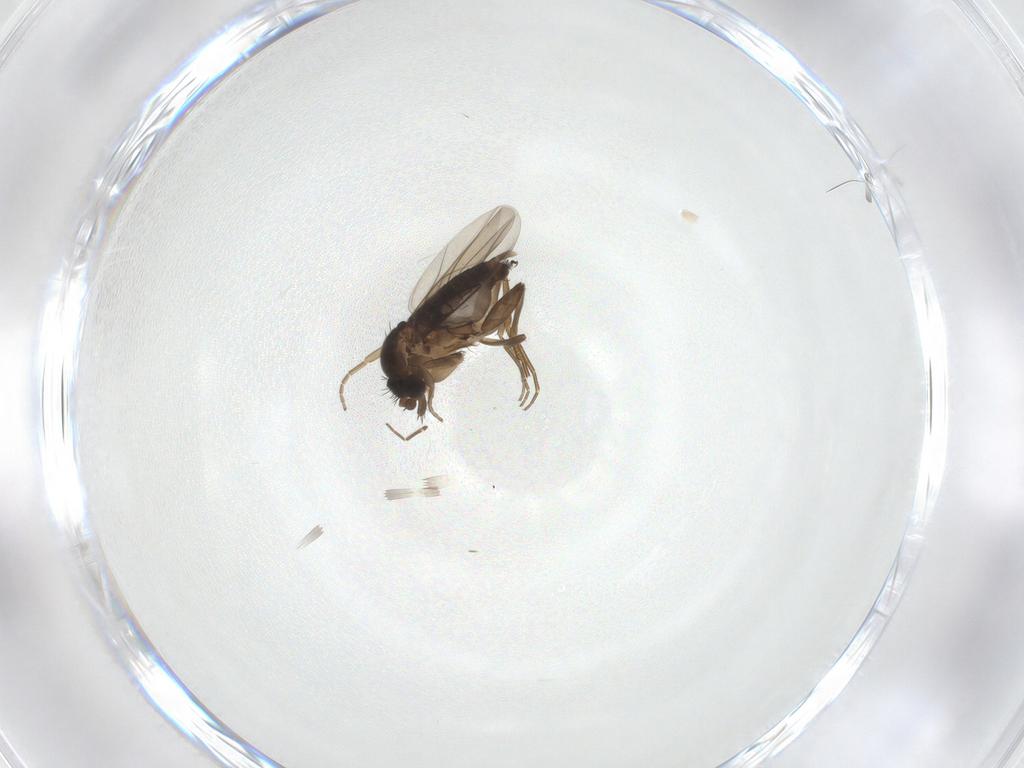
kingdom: Animalia
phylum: Arthropoda
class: Insecta
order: Diptera
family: Phoridae
